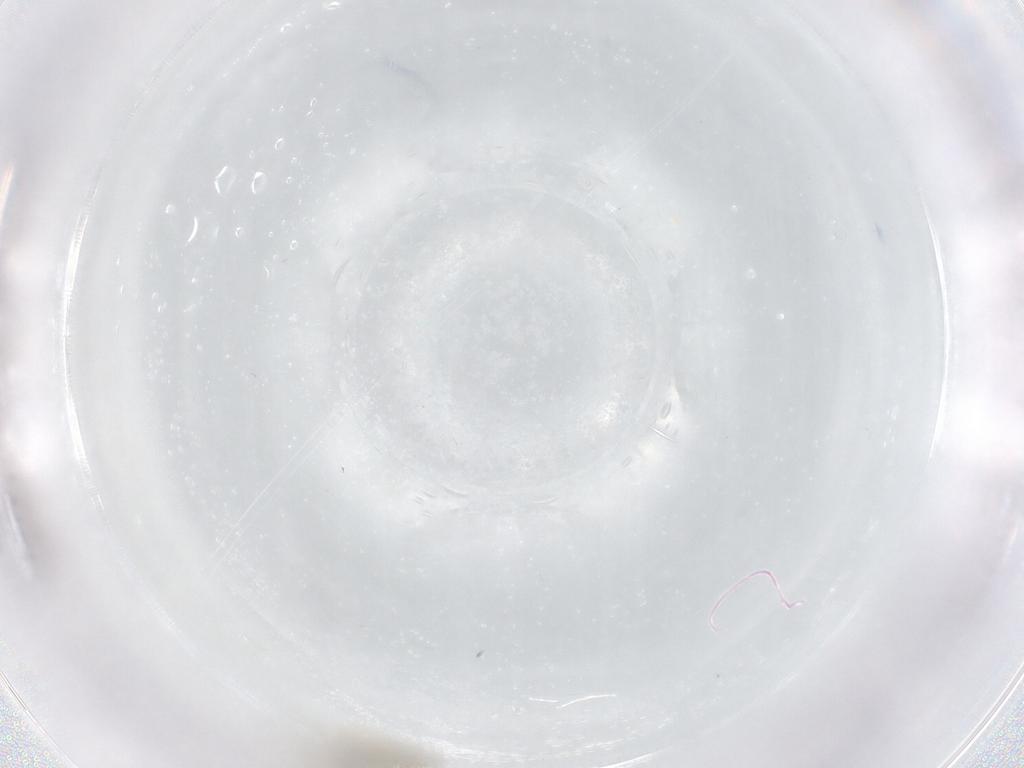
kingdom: Animalia
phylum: Arthropoda
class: Insecta
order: Diptera
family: Phoridae
